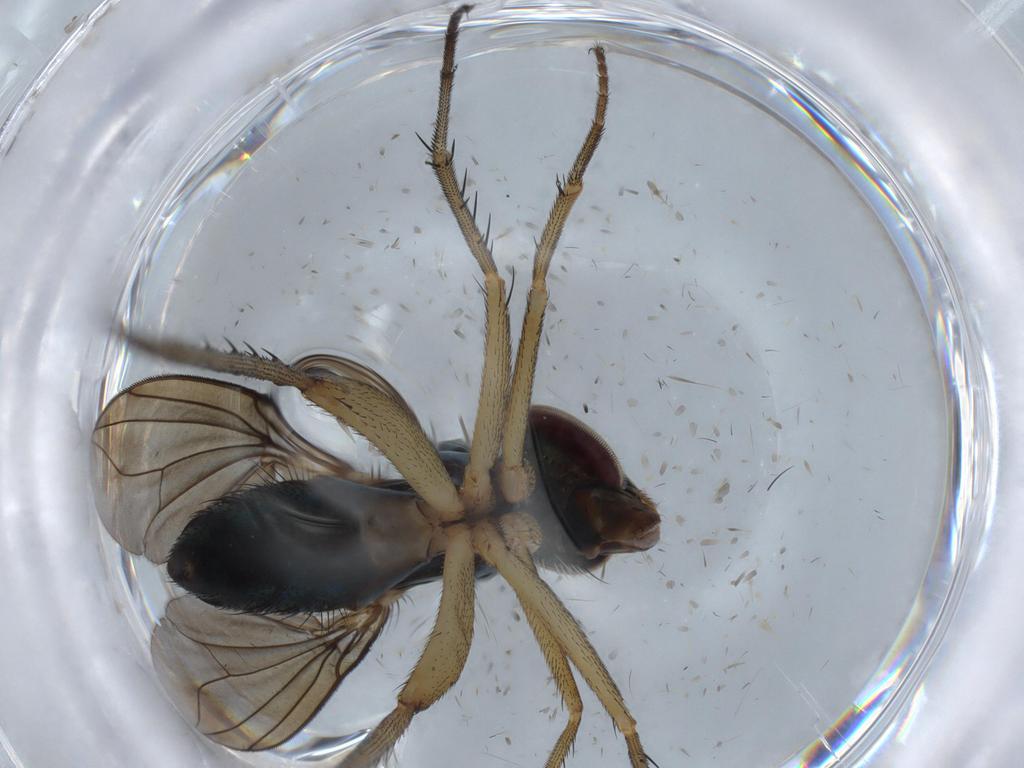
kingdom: Animalia
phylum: Arthropoda
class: Insecta
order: Diptera
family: Dolichopodidae
